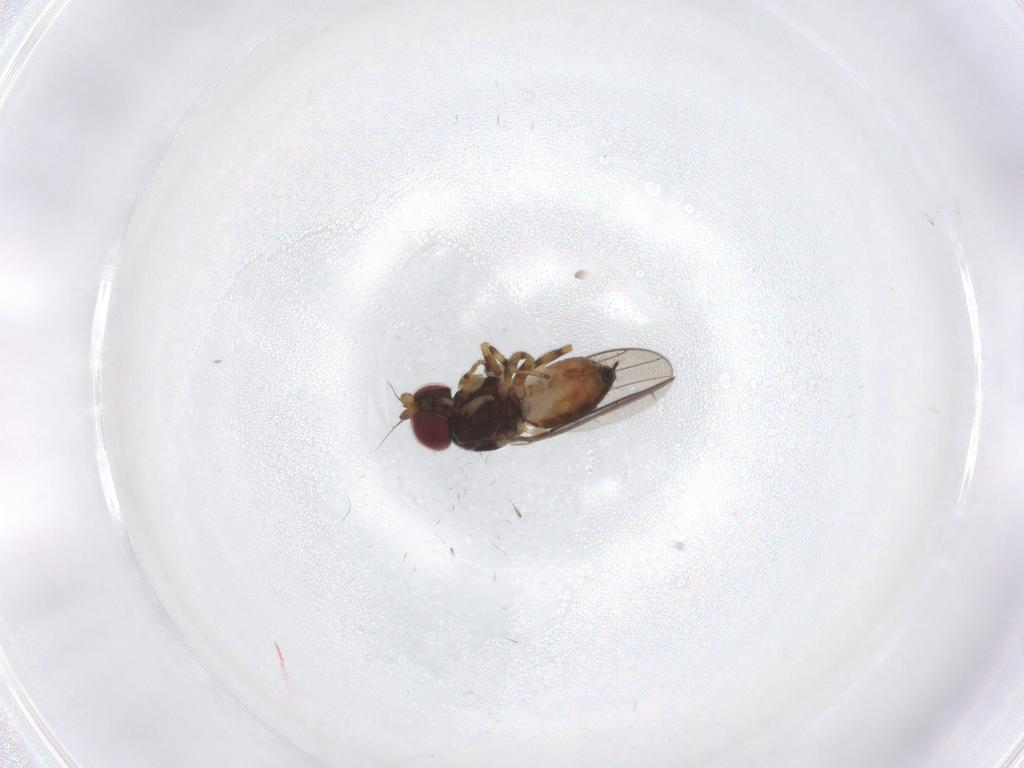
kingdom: Animalia
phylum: Arthropoda
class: Insecta
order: Diptera
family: Chloropidae
